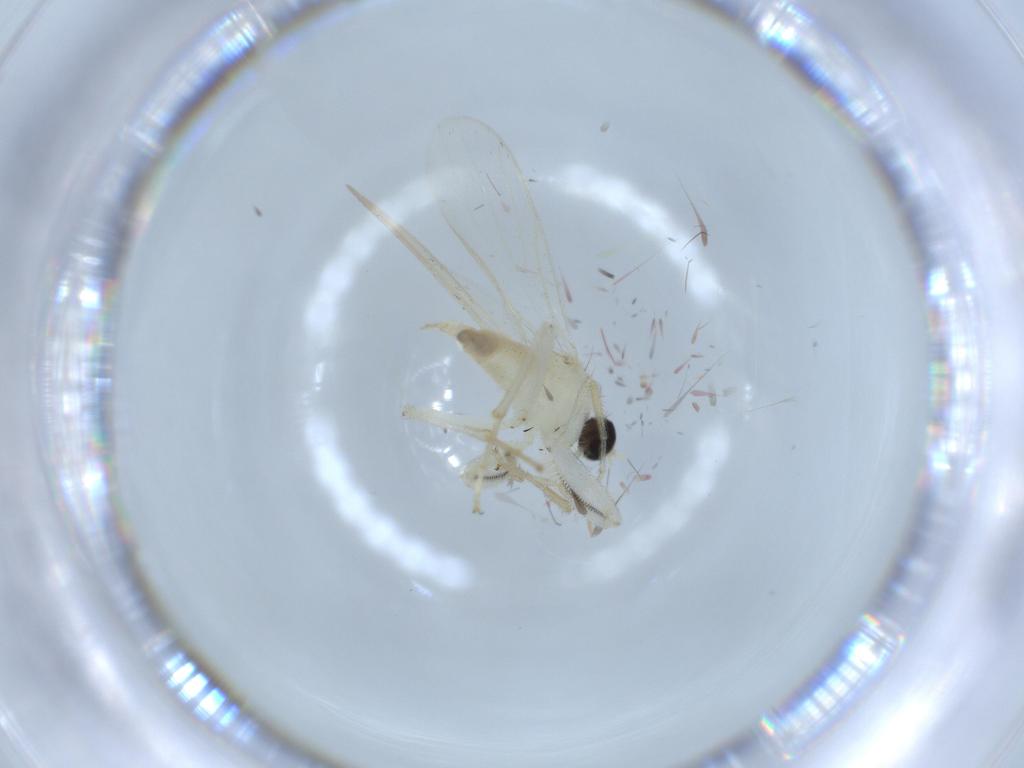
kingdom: Animalia
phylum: Arthropoda
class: Insecta
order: Diptera
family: Hybotidae
